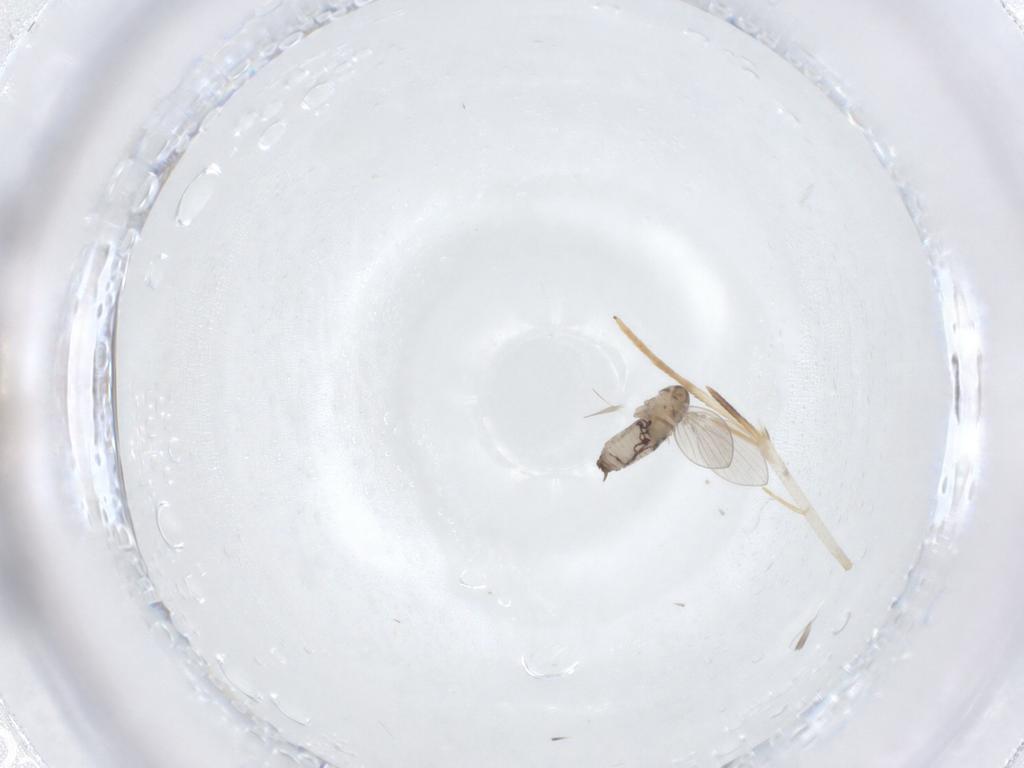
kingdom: Animalia
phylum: Arthropoda
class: Insecta
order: Diptera
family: Psychodidae
